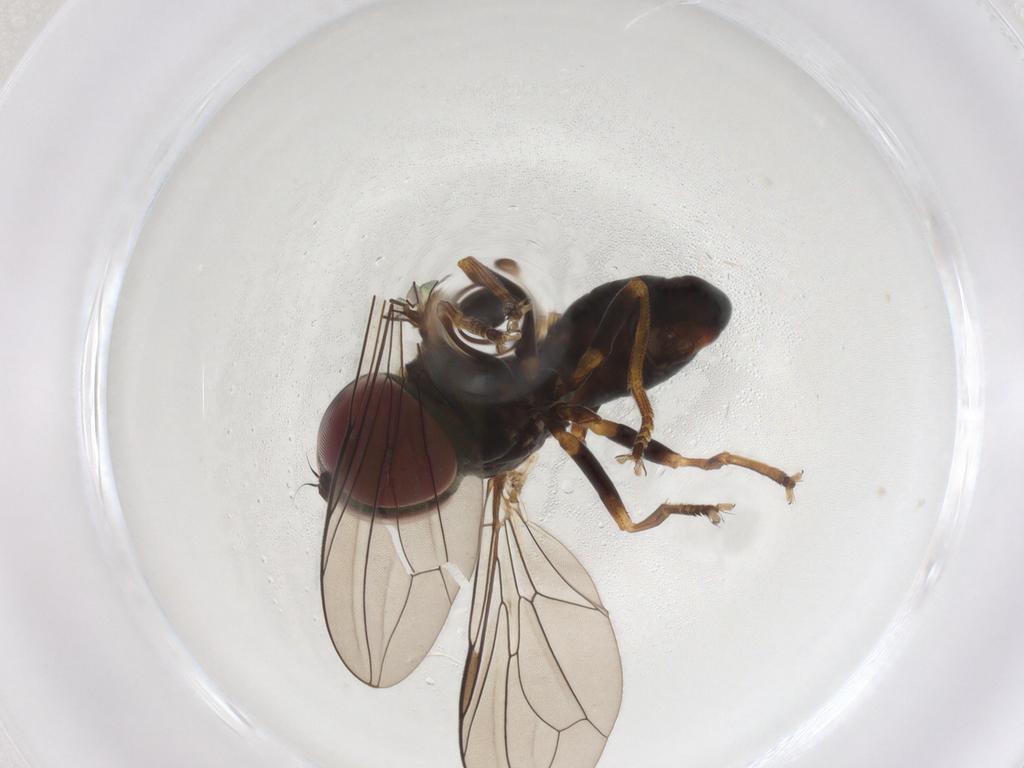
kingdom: Animalia
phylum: Arthropoda
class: Insecta
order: Diptera
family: Pipunculidae
